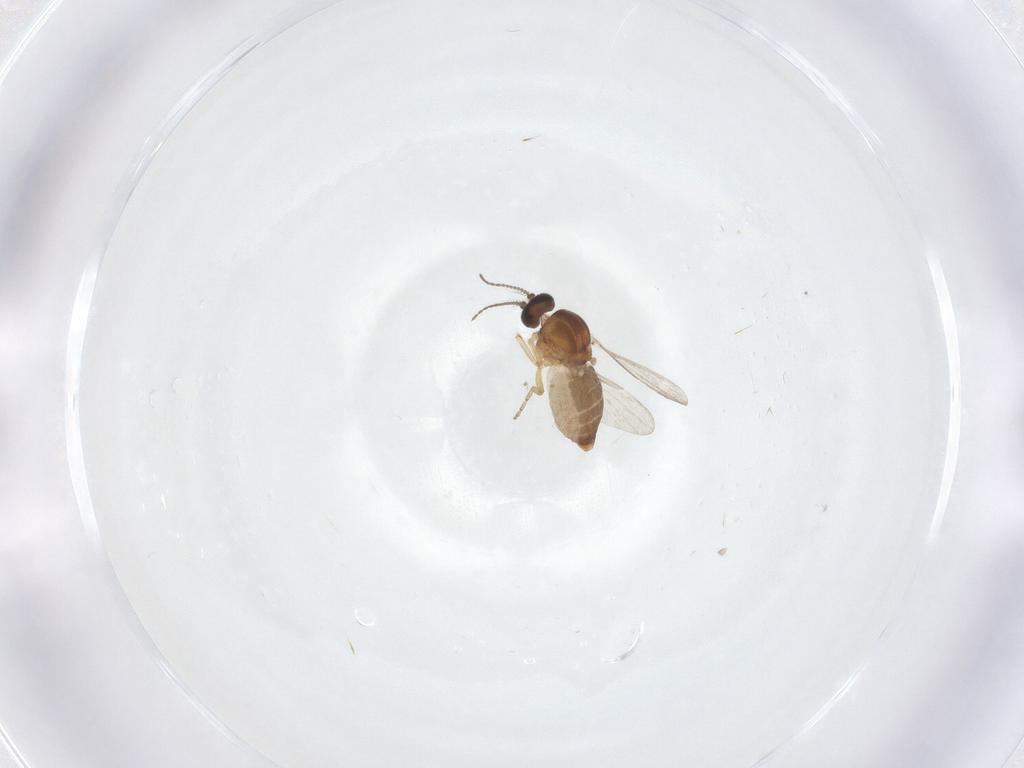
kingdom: Animalia
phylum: Arthropoda
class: Insecta
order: Diptera
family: Ceratopogonidae
